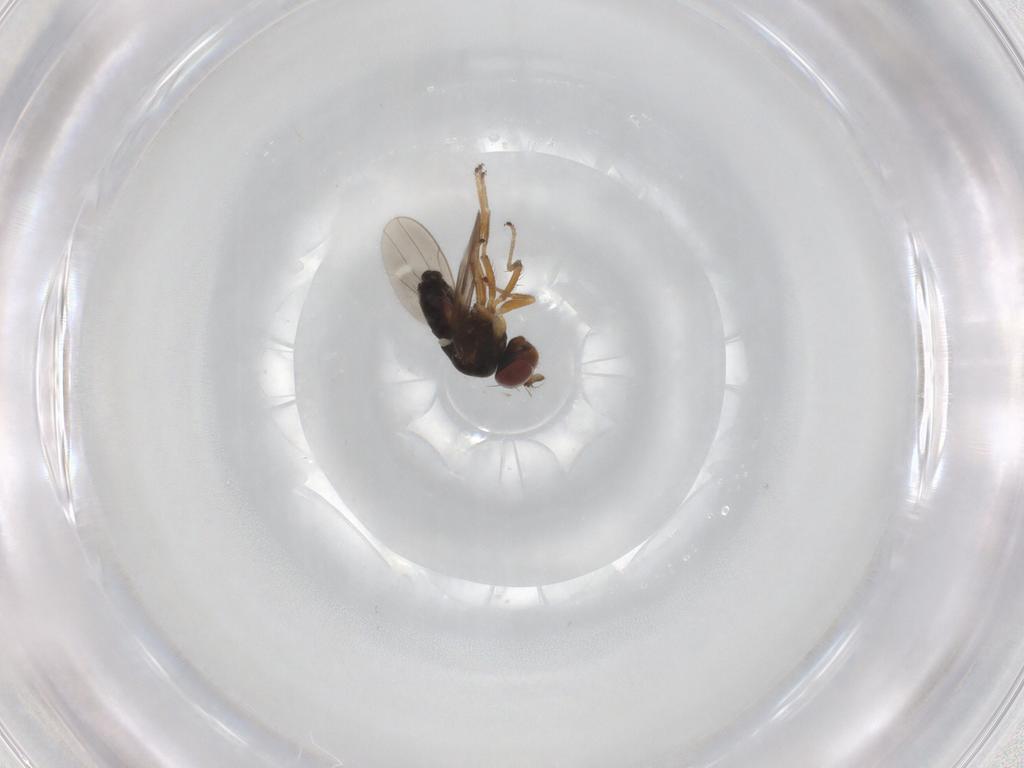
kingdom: Animalia
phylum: Arthropoda
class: Insecta
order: Diptera
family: Ephydridae
